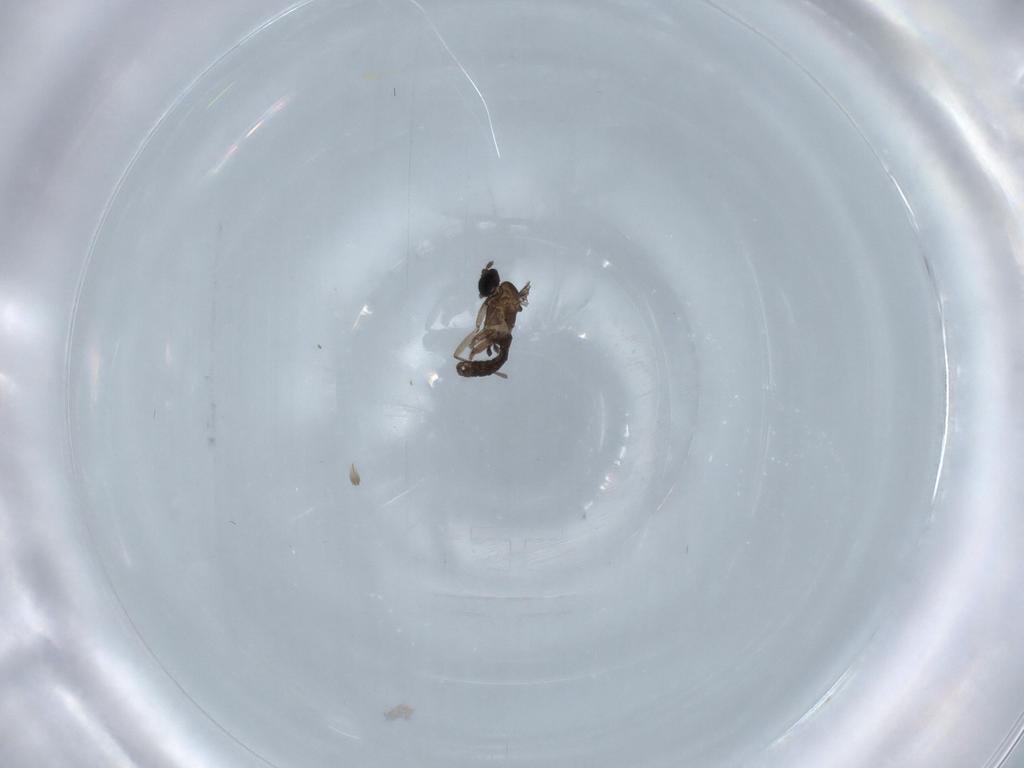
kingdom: Animalia
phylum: Arthropoda
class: Insecta
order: Diptera
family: Sciaridae
